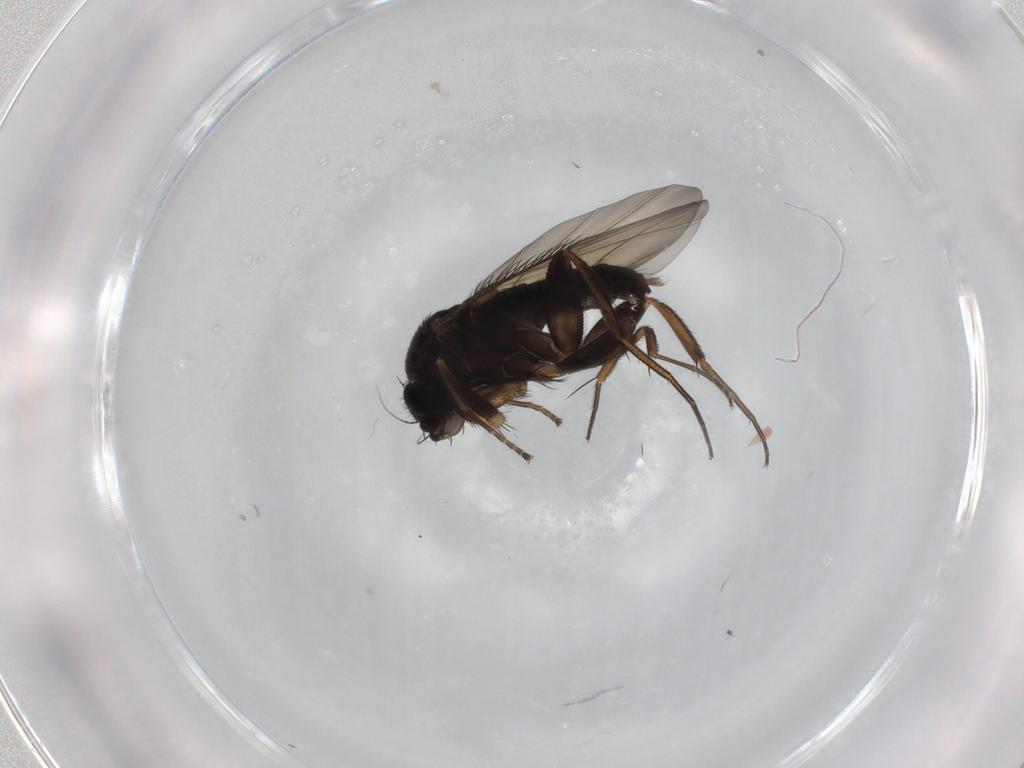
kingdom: Animalia
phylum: Arthropoda
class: Insecta
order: Diptera
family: Phoridae
